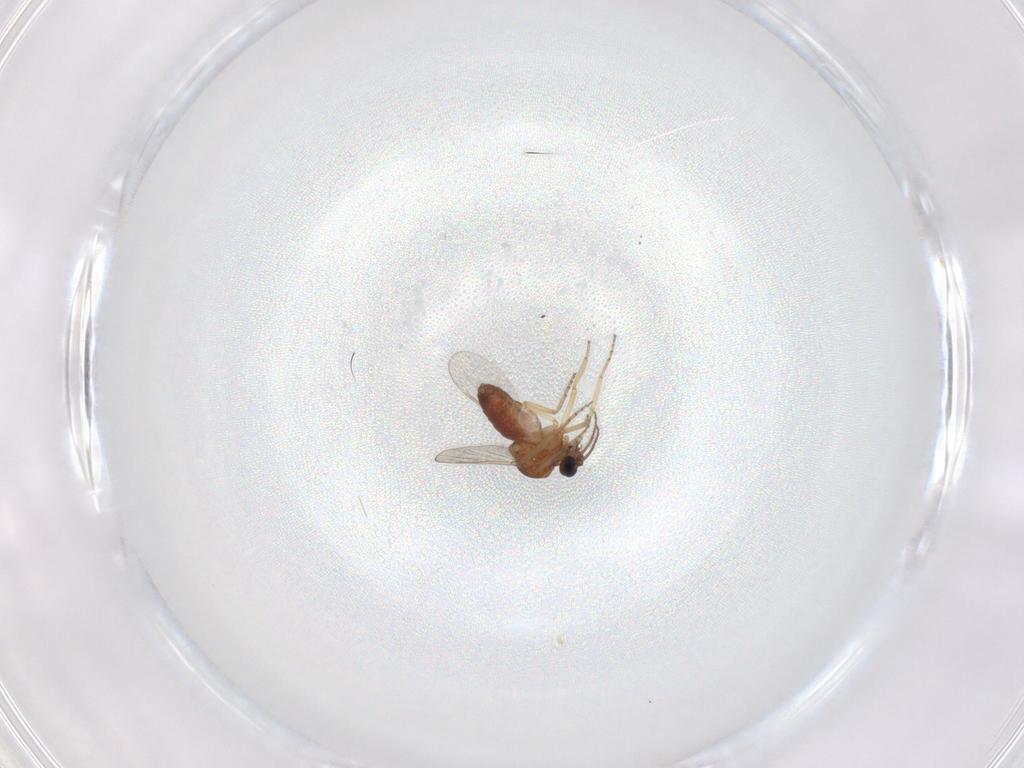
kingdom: Animalia
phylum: Arthropoda
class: Insecta
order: Diptera
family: Ceratopogonidae
